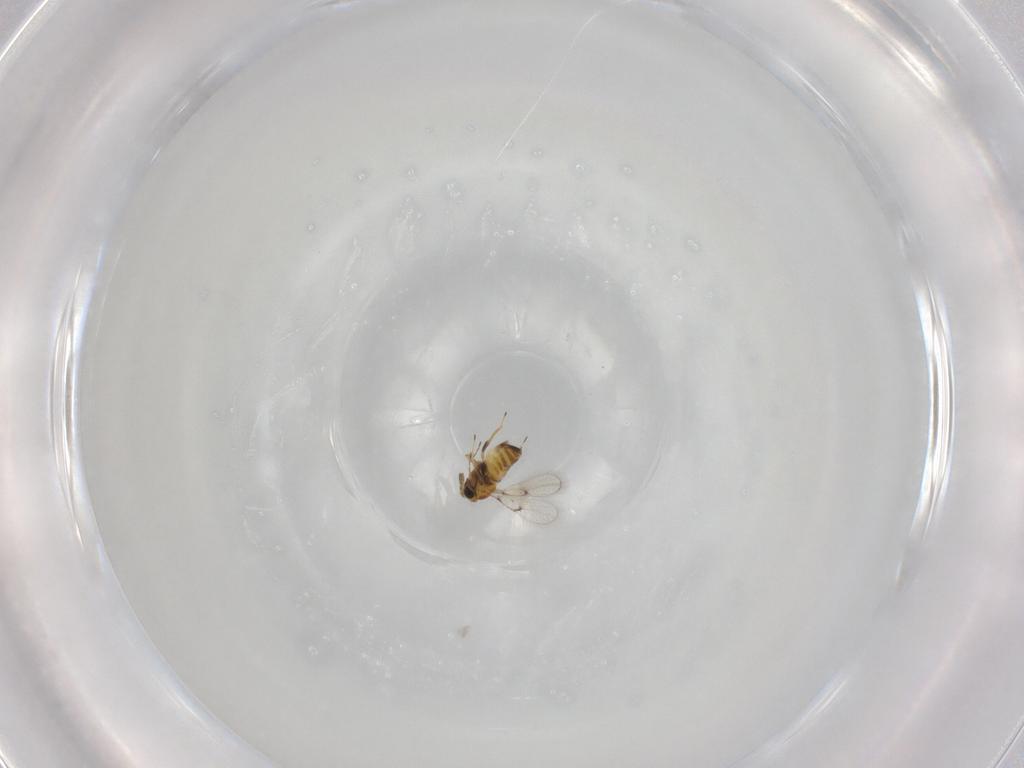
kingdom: Animalia
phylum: Arthropoda
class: Insecta
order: Hymenoptera
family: Trichogrammatidae
